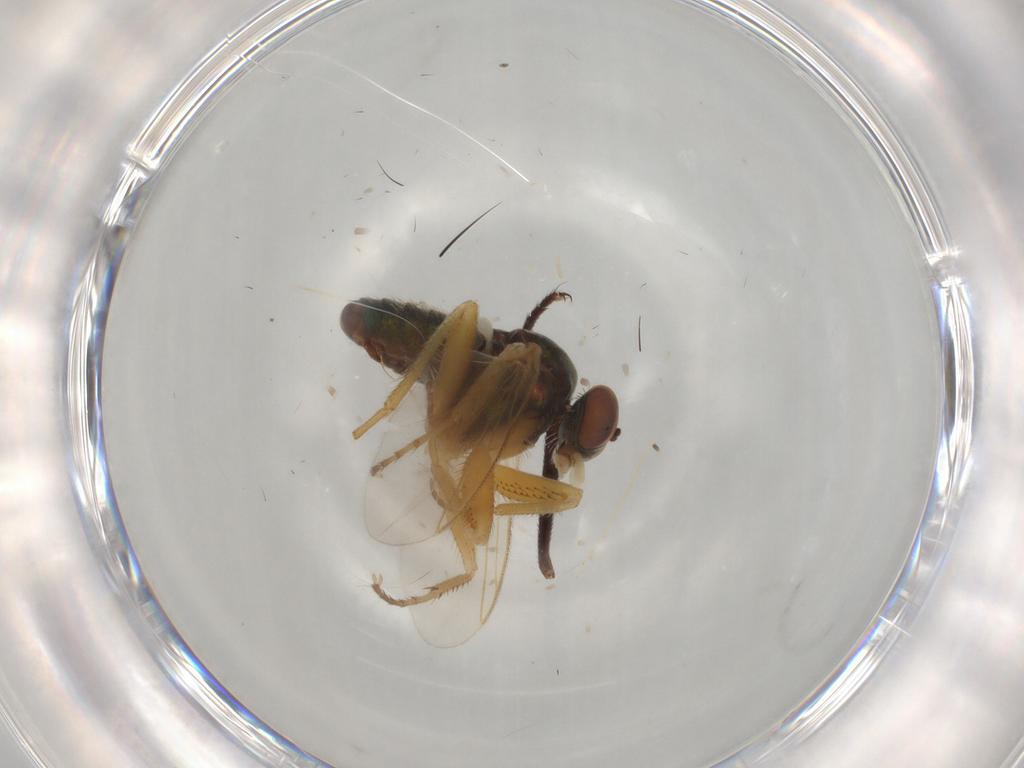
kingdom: Animalia
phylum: Arthropoda
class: Insecta
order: Diptera
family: Dolichopodidae
